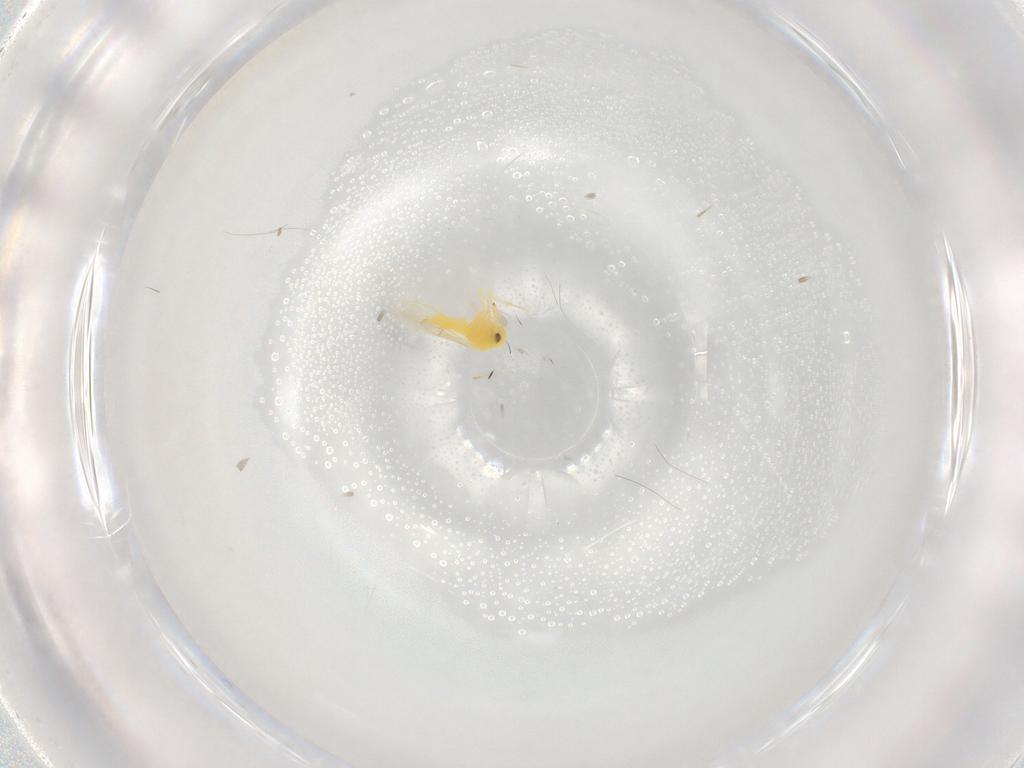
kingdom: Animalia
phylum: Arthropoda
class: Insecta
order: Hemiptera
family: Aleyrodidae
